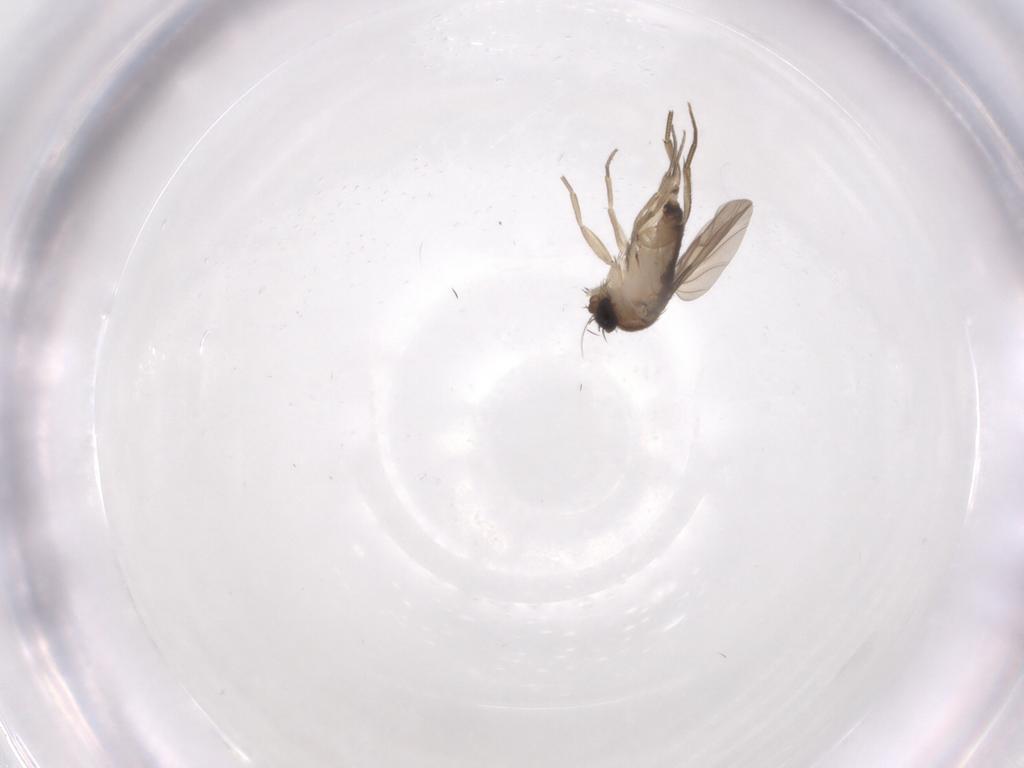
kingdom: Animalia
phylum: Arthropoda
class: Insecta
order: Diptera
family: Phoridae
